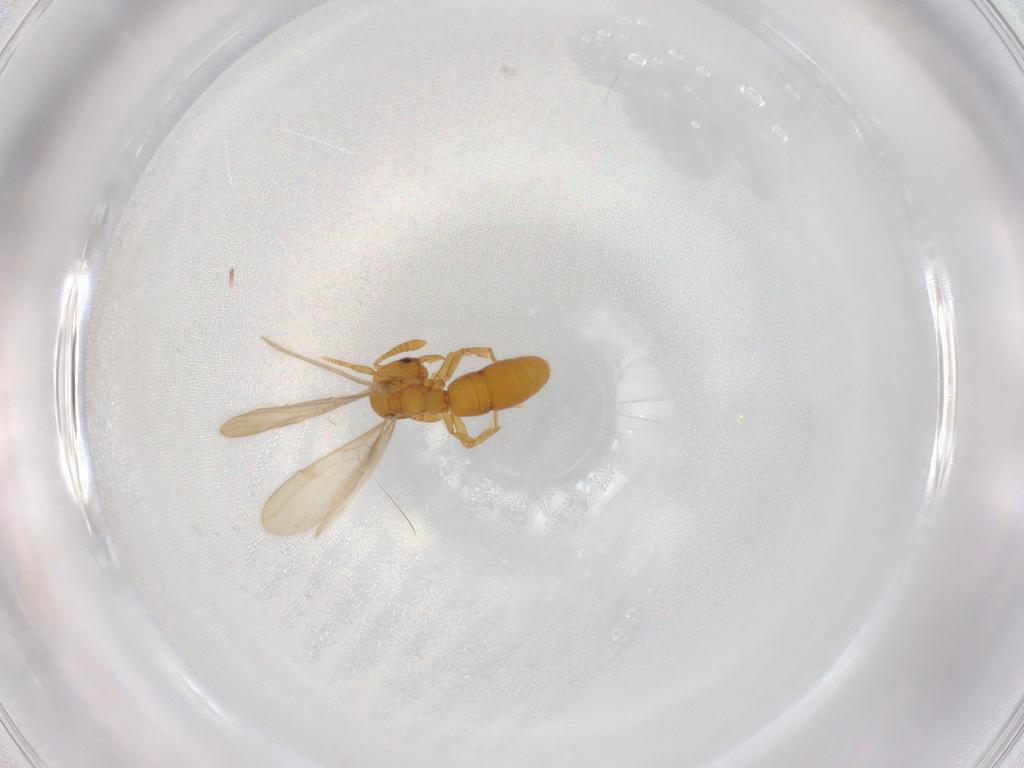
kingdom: Animalia
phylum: Arthropoda
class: Insecta
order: Hymenoptera
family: Formicidae
